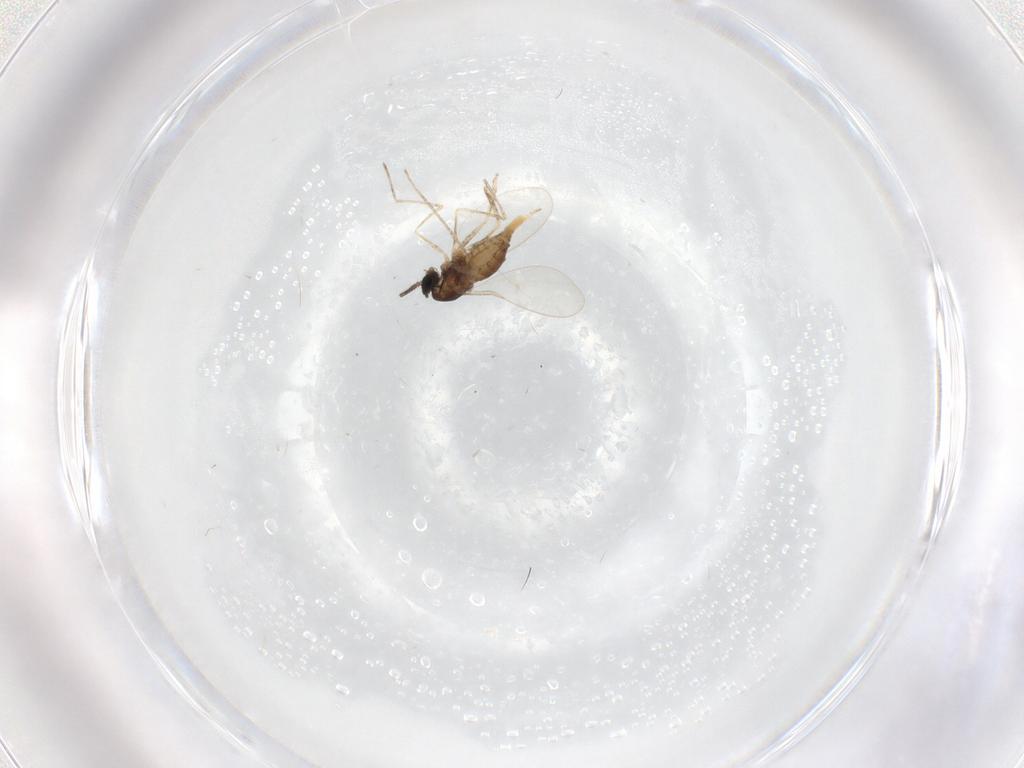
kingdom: Animalia
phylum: Arthropoda
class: Insecta
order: Diptera
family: Cecidomyiidae
